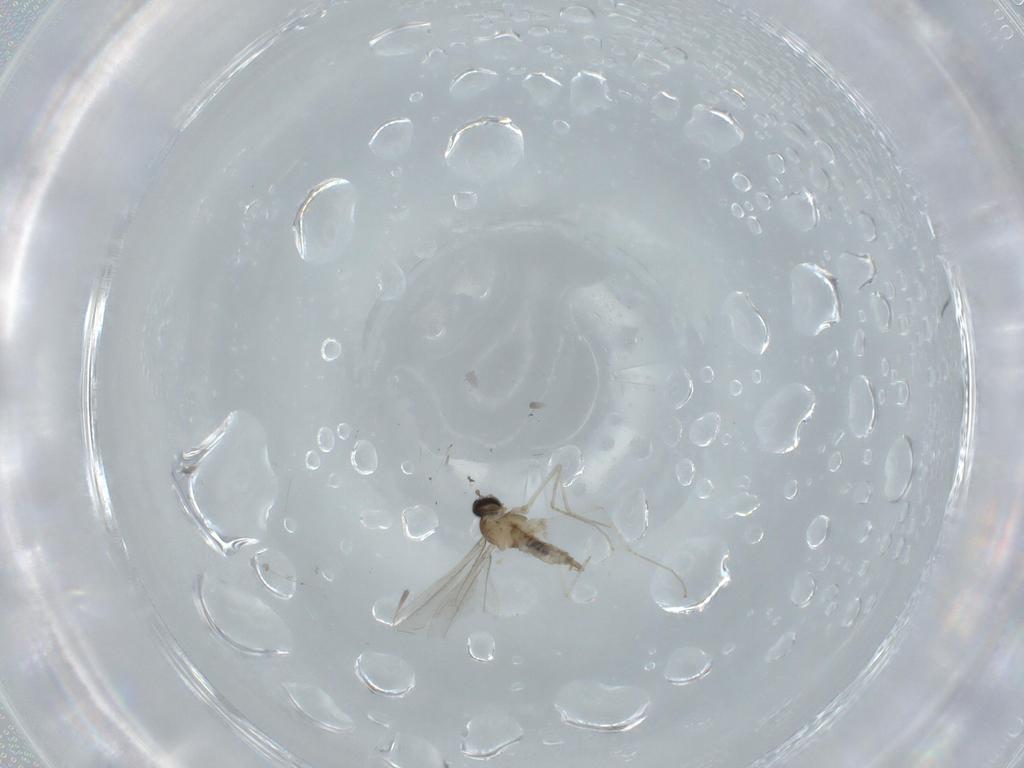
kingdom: Animalia
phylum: Arthropoda
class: Insecta
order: Diptera
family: Cecidomyiidae
